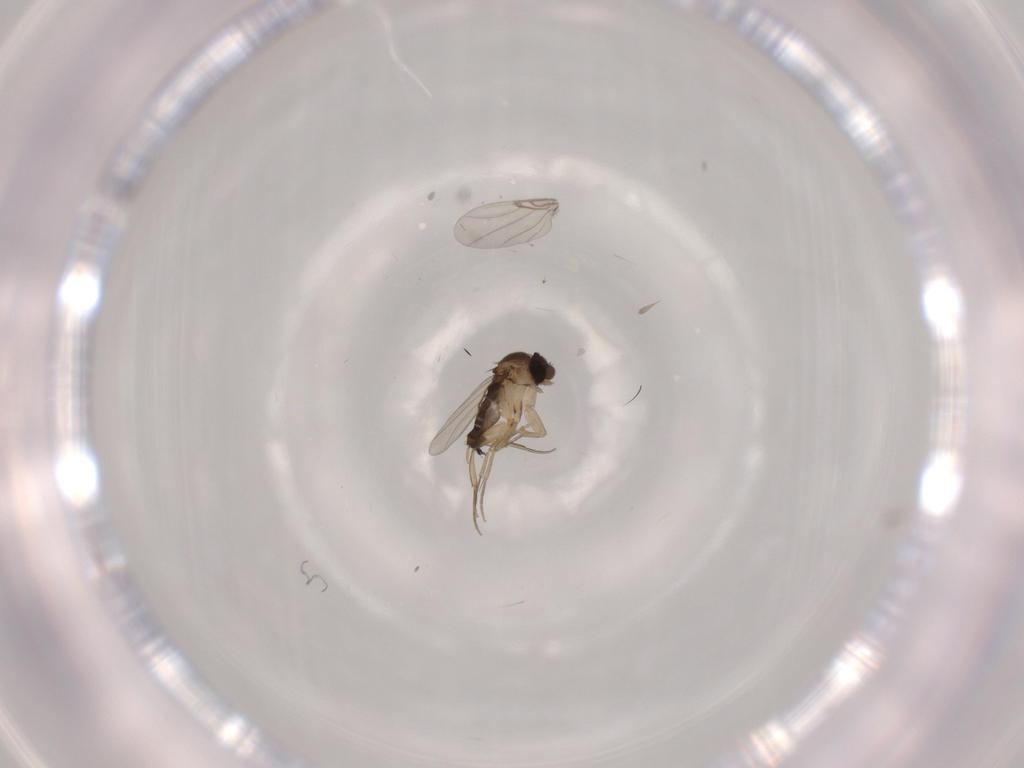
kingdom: Animalia
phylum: Arthropoda
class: Insecta
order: Diptera
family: Phoridae
